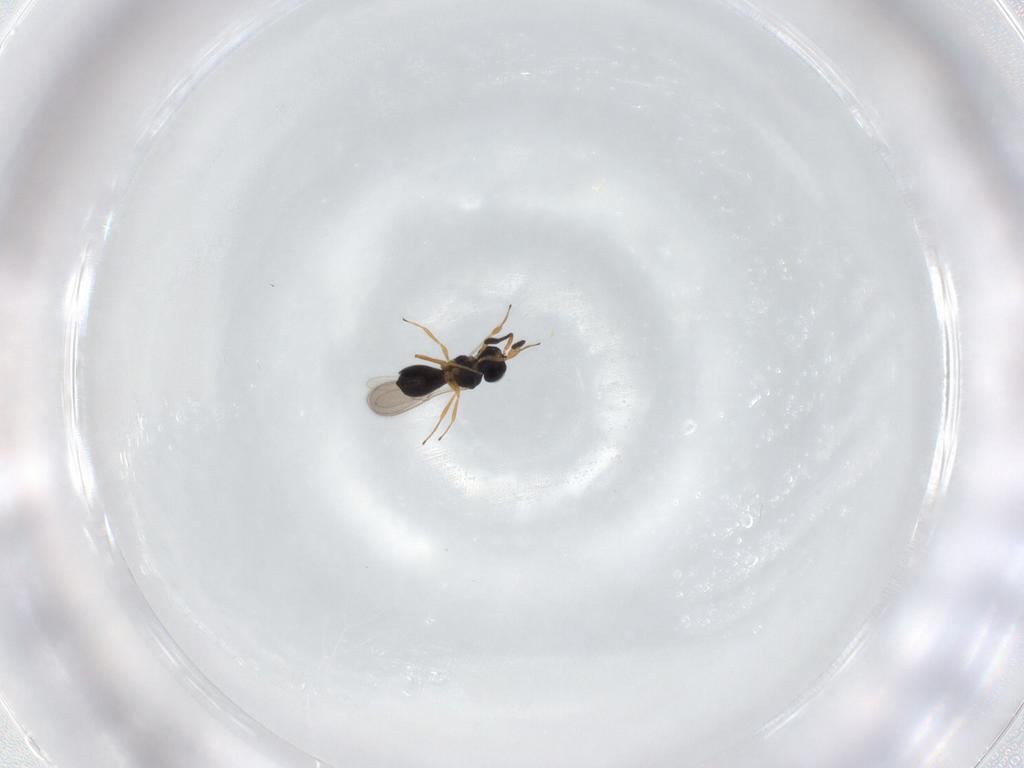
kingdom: Animalia
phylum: Arthropoda
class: Insecta
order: Hymenoptera
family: Scelionidae
